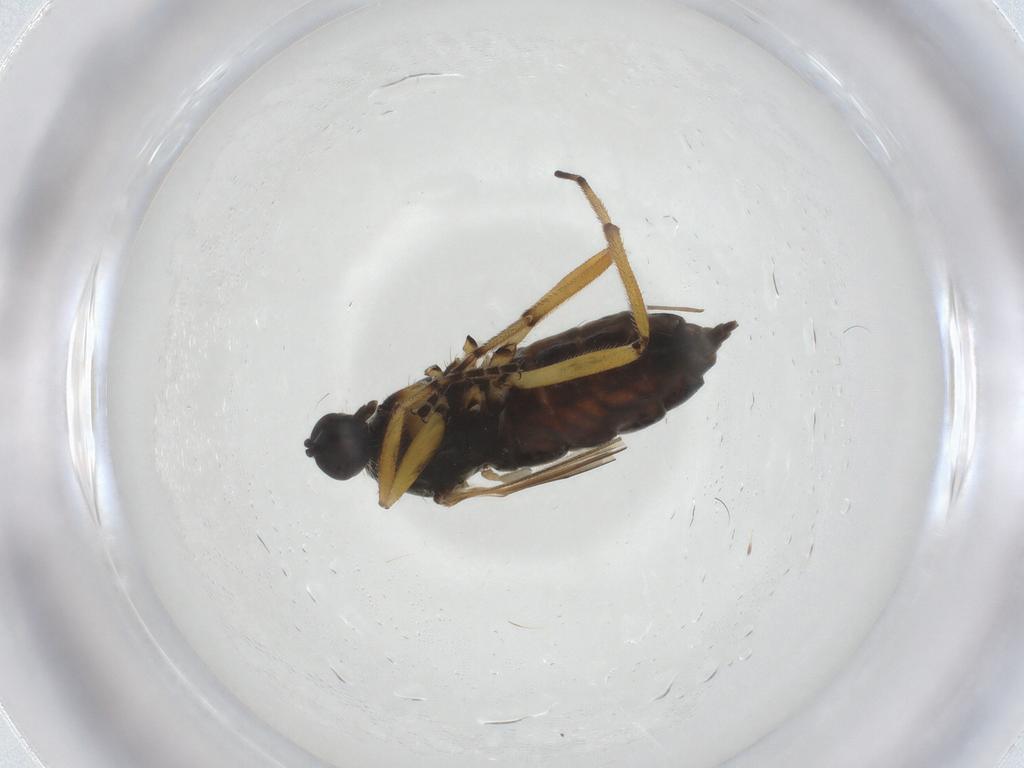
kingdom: Animalia
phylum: Arthropoda
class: Insecta
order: Diptera
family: Hybotidae
